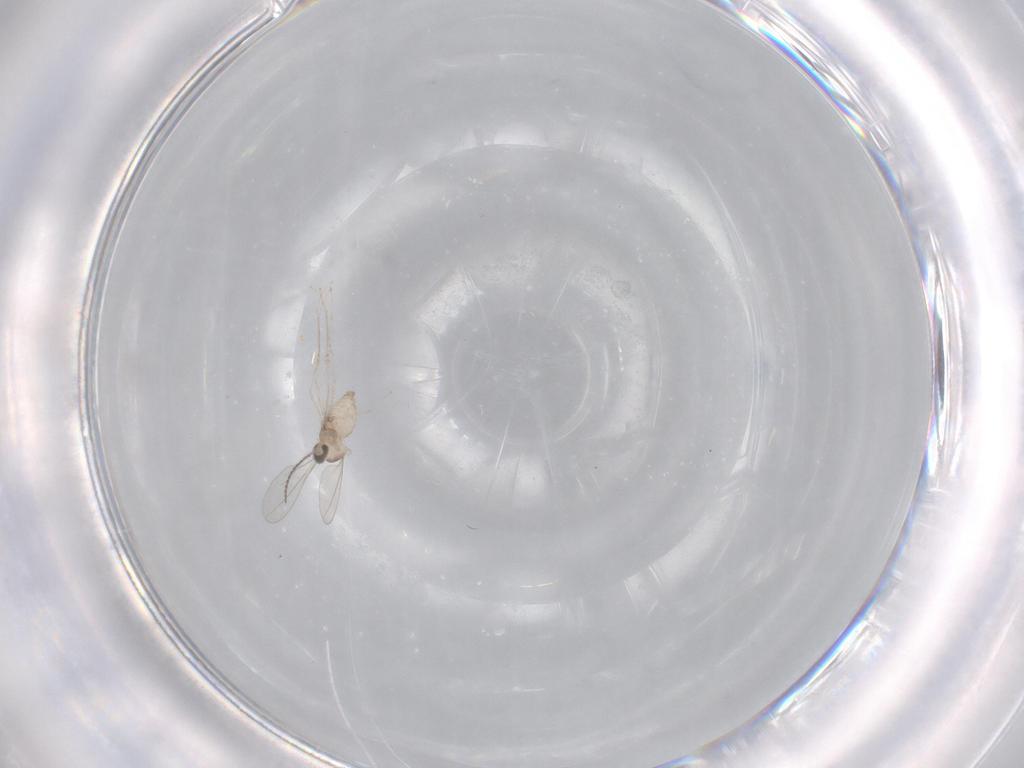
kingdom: Animalia
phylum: Arthropoda
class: Insecta
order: Diptera
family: Cecidomyiidae
